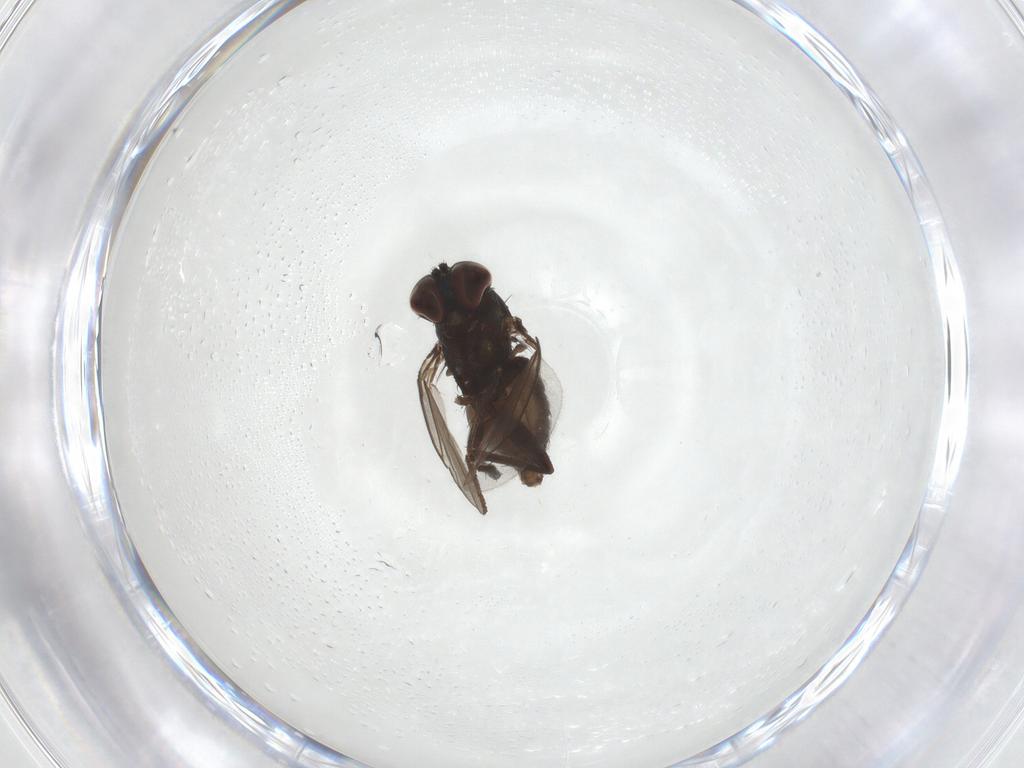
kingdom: Animalia
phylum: Arthropoda
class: Insecta
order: Diptera
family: Dolichopodidae
